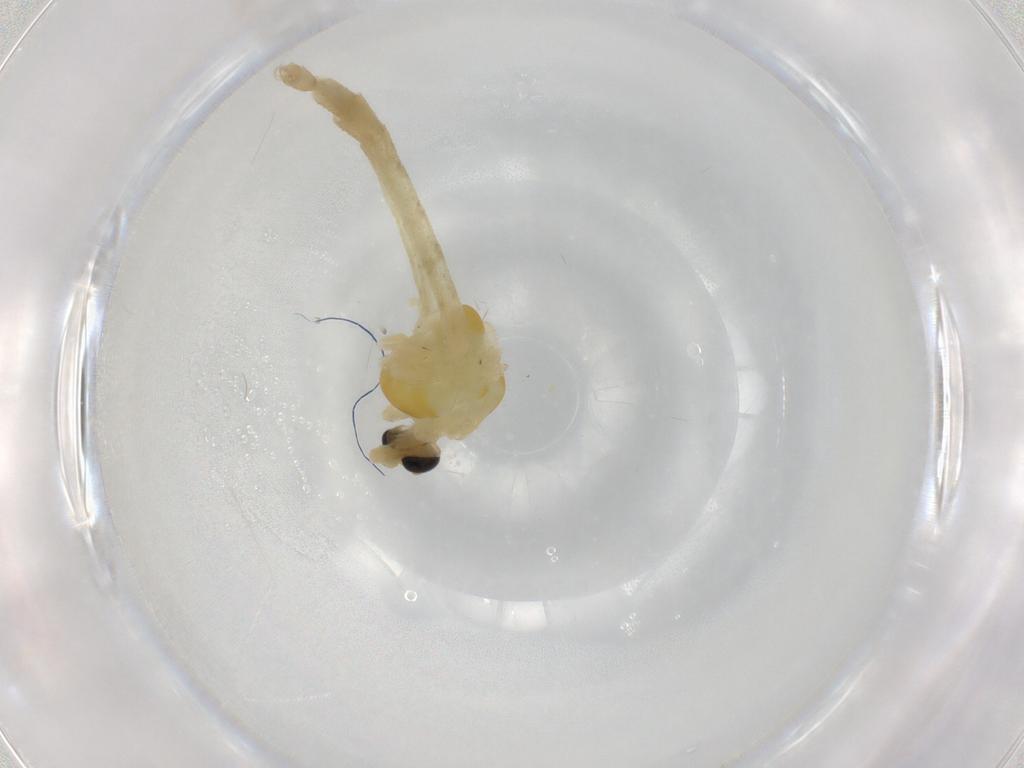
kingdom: Animalia
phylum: Arthropoda
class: Insecta
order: Diptera
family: Chironomidae
